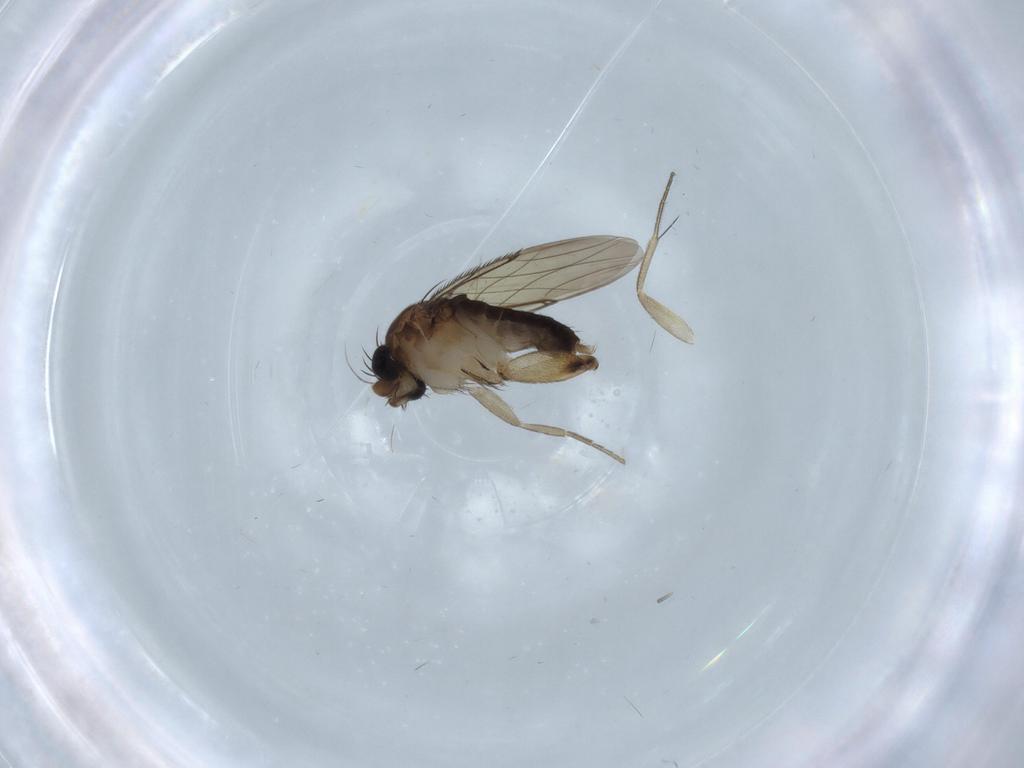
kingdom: Animalia
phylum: Arthropoda
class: Insecta
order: Diptera
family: Phoridae
